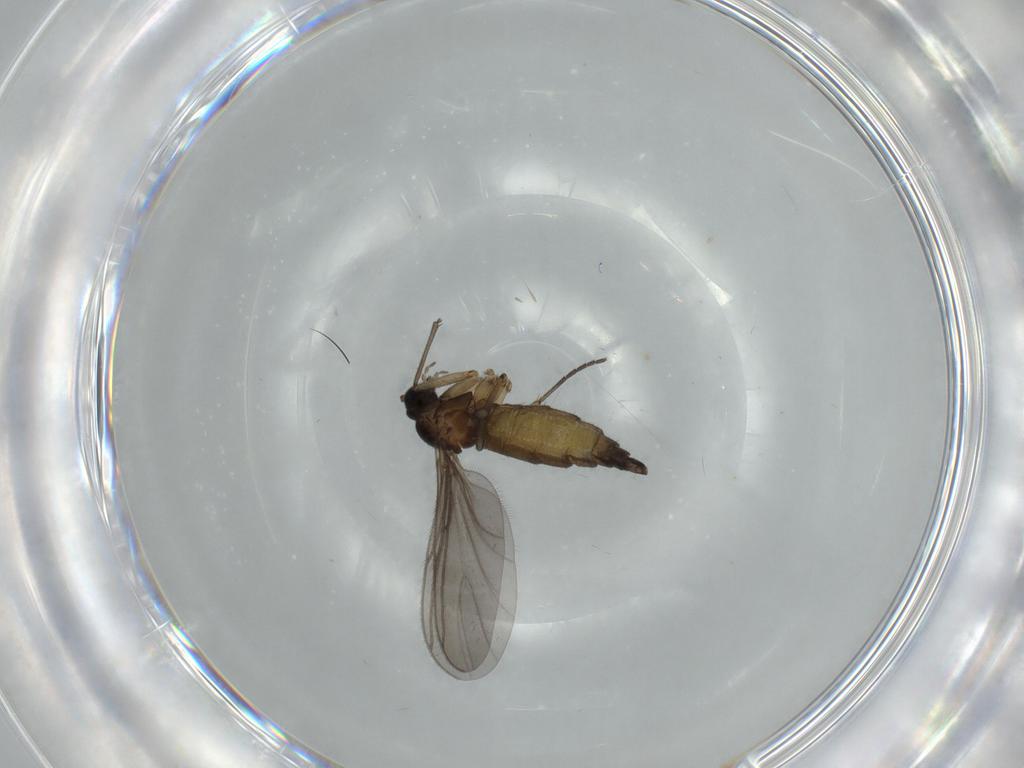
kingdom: Animalia
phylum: Arthropoda
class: Insecta
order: Diptera
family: Sciaridae
